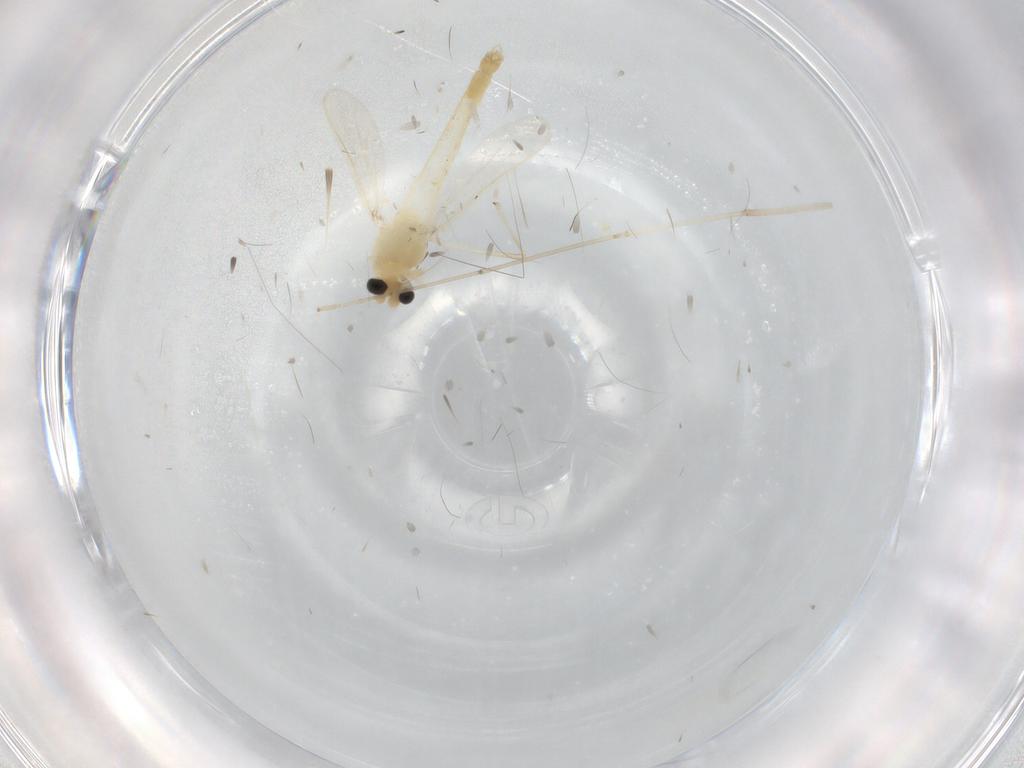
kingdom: Animalia
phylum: Arthropoda
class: Insecta
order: Diptera
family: Chironomidae
